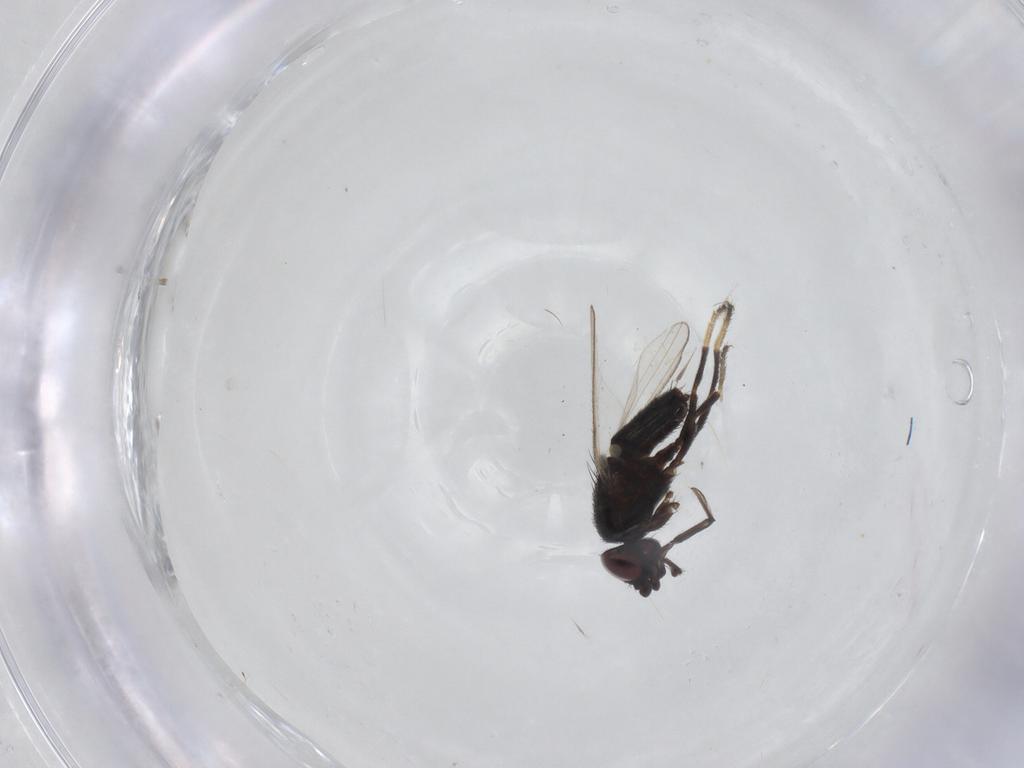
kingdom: Animalia
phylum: Arthropoda
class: Insecta
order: Diptera
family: Milichiidae
